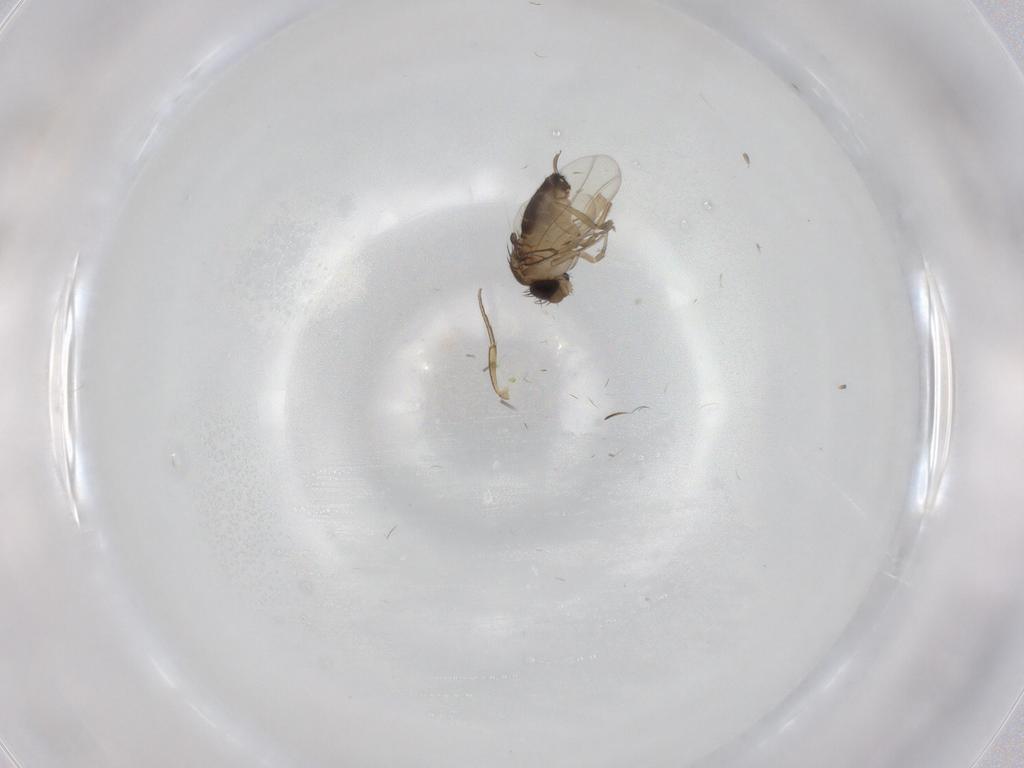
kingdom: Animalia
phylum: Arthropoda
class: Insecta
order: Diptera
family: Cecidomyiidae
